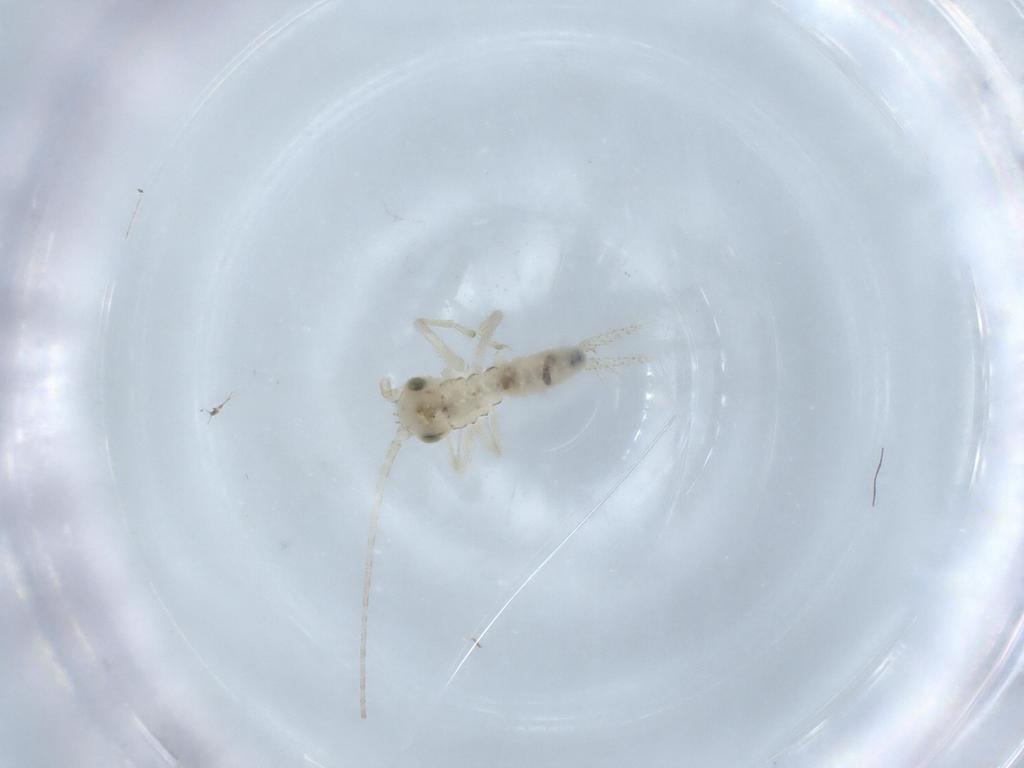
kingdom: Animalia
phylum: Arthropoda
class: Insecta
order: Orthoptera
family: Trigonidiidae
